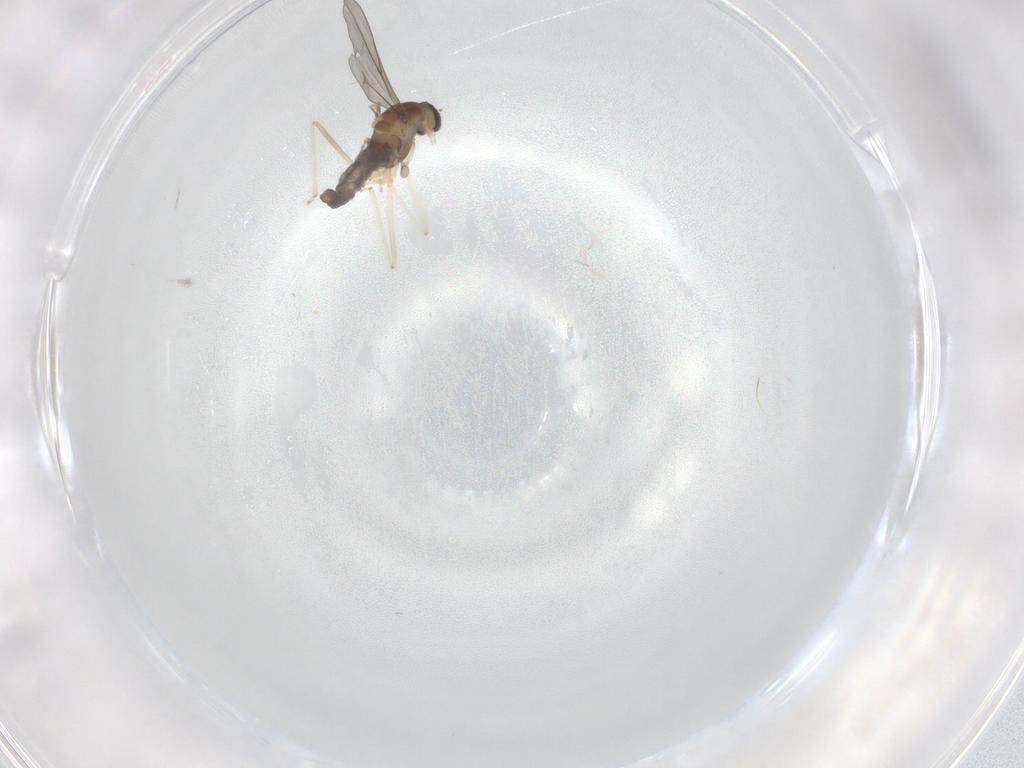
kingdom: Animalia
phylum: Arthropoda
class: Insecta
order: Diptera
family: Cecidomyiidae
